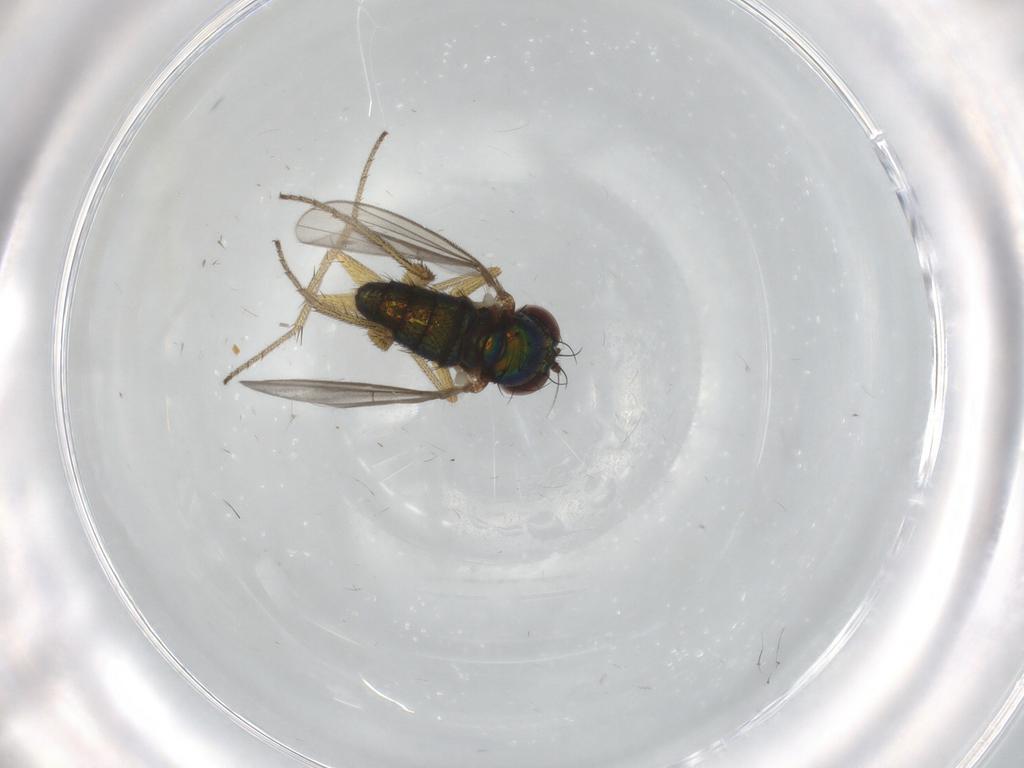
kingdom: Animalia
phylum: Arthropoda
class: Insecta
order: Diptera
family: Dolichopodidae
